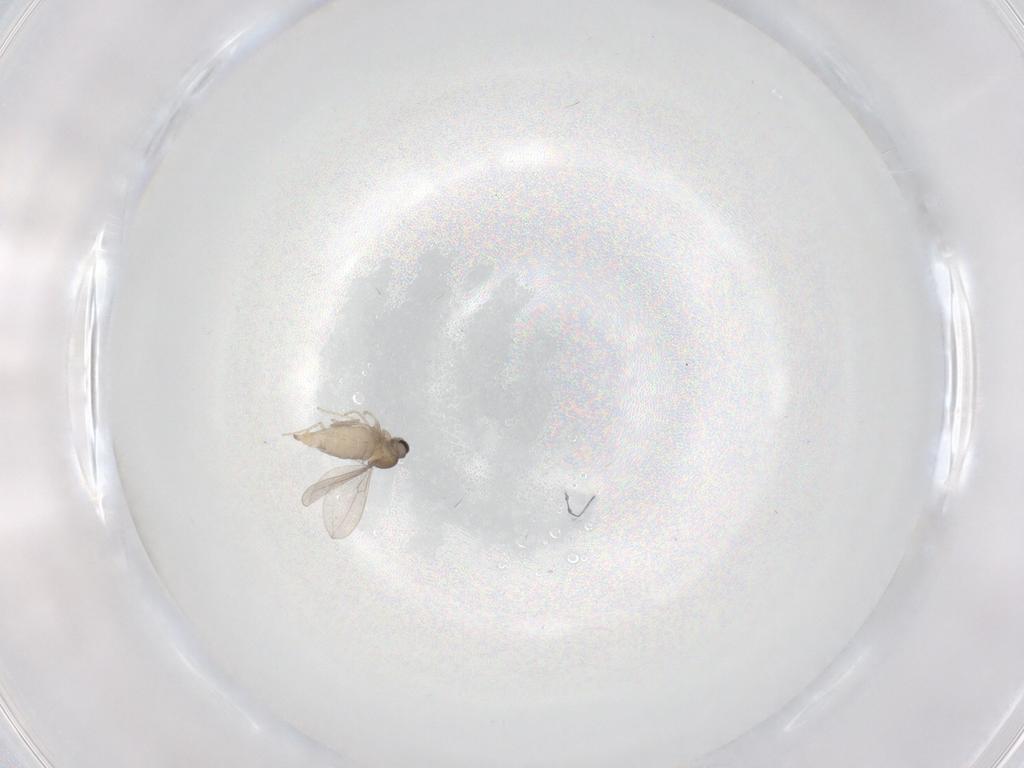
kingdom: Animalia
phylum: Arthropoda
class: Insecta
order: Diptera
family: Cecidomyiidae
